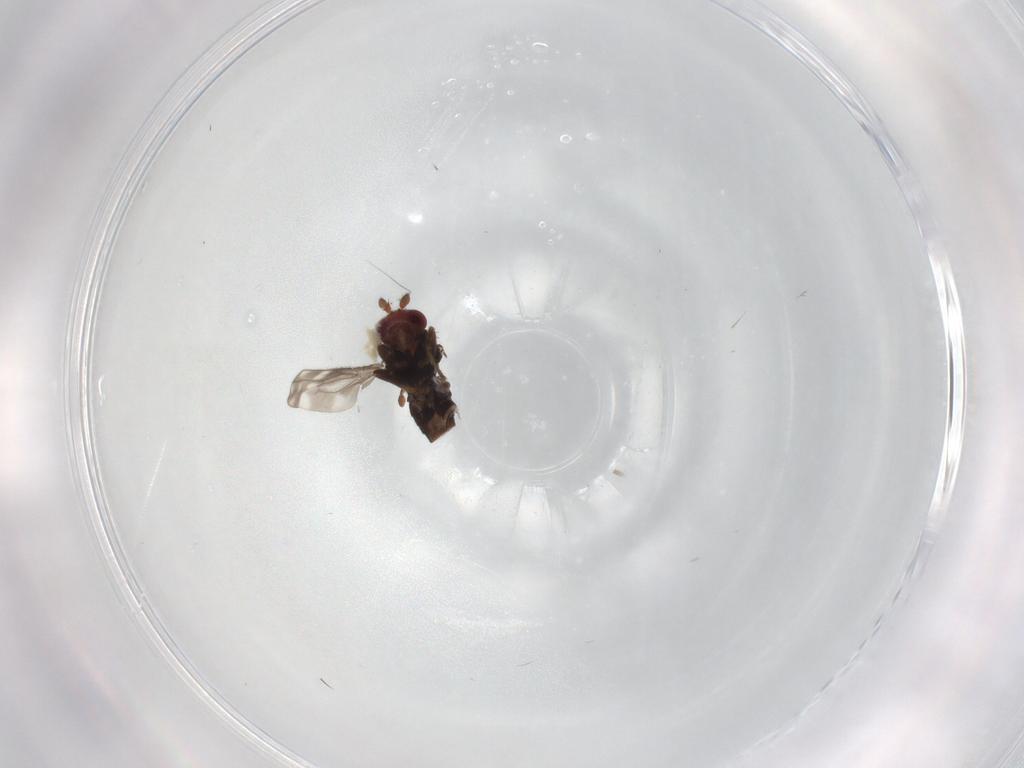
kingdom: Animalia
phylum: Arthropoda
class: Insecta
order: Diptera
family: Sphaeroceridae
